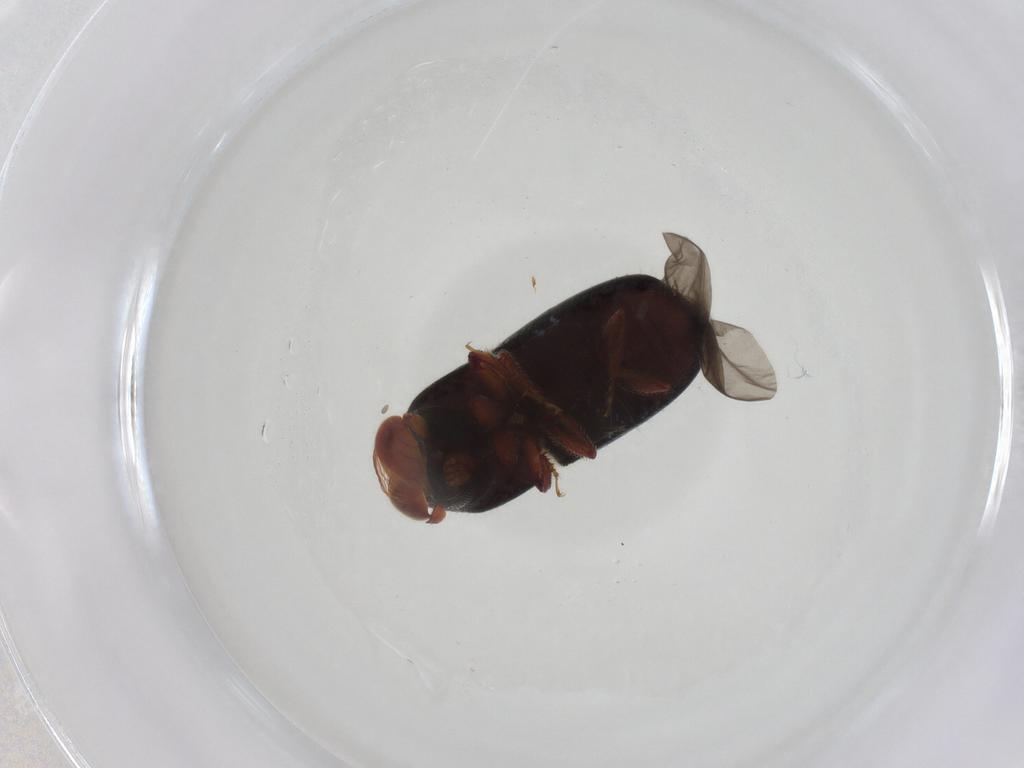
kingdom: Animalia
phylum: Arthropoda
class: Insecta
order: Coleoptera
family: Curculionidae
